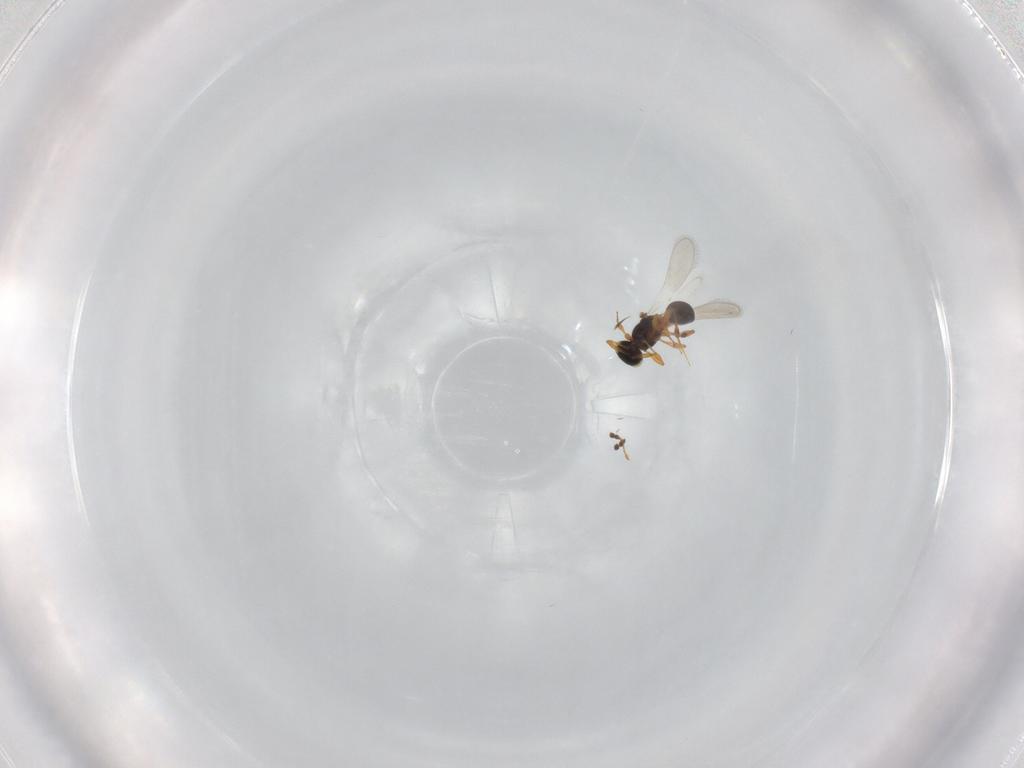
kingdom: Animalia
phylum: Arthropoda
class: Insecta
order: Hymenoptera
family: Platygastridae
